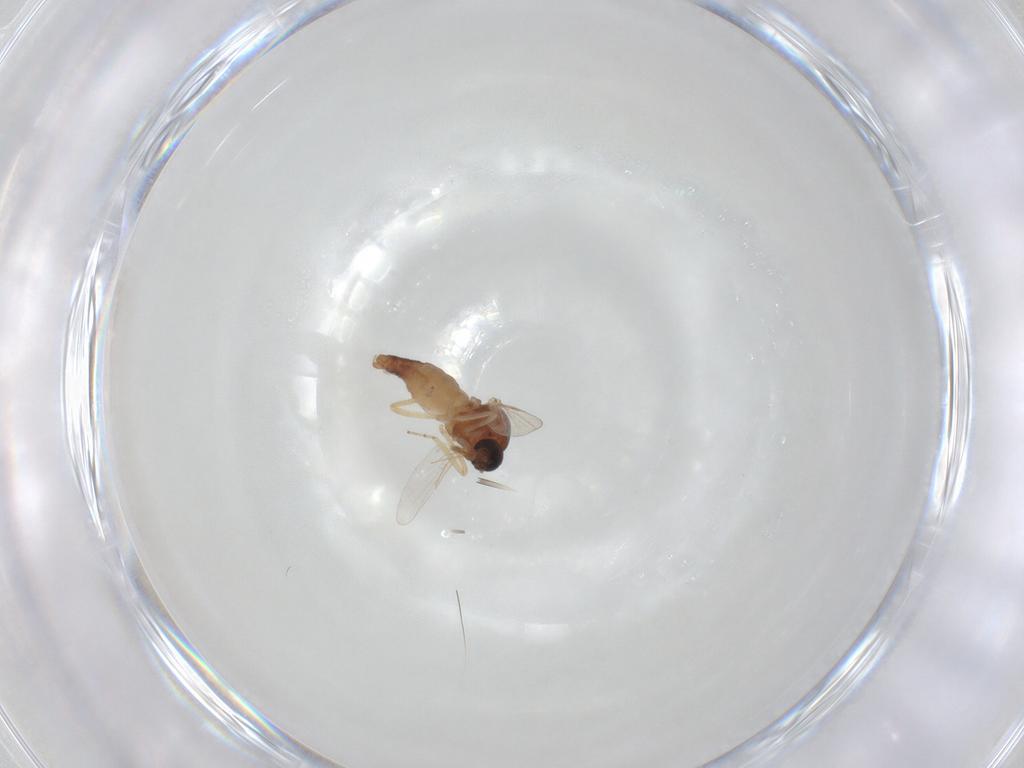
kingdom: Animalia
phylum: Arthropoda
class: Insecta
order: Diptera
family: Ceratopogonidae
